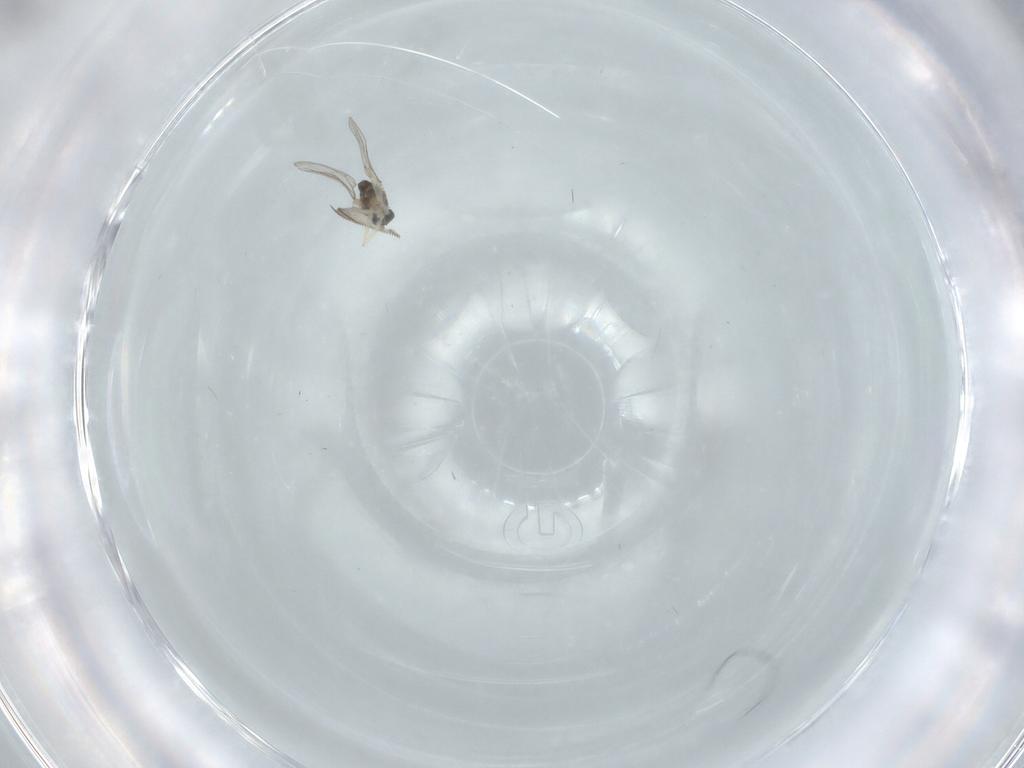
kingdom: Animalia
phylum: Arthropoda
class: Insecta
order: Diptera
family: Cecidomyiidae
